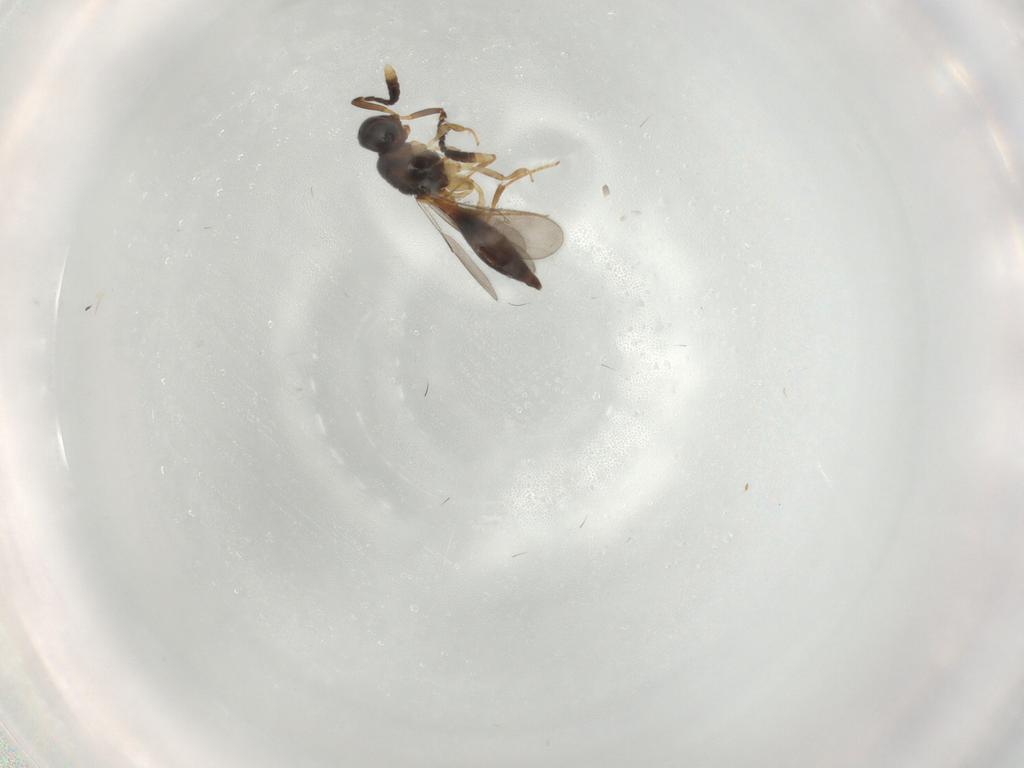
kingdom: Animalia
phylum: Arthropoda
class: Insecta
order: Hymenoptera
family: Scelionidae
